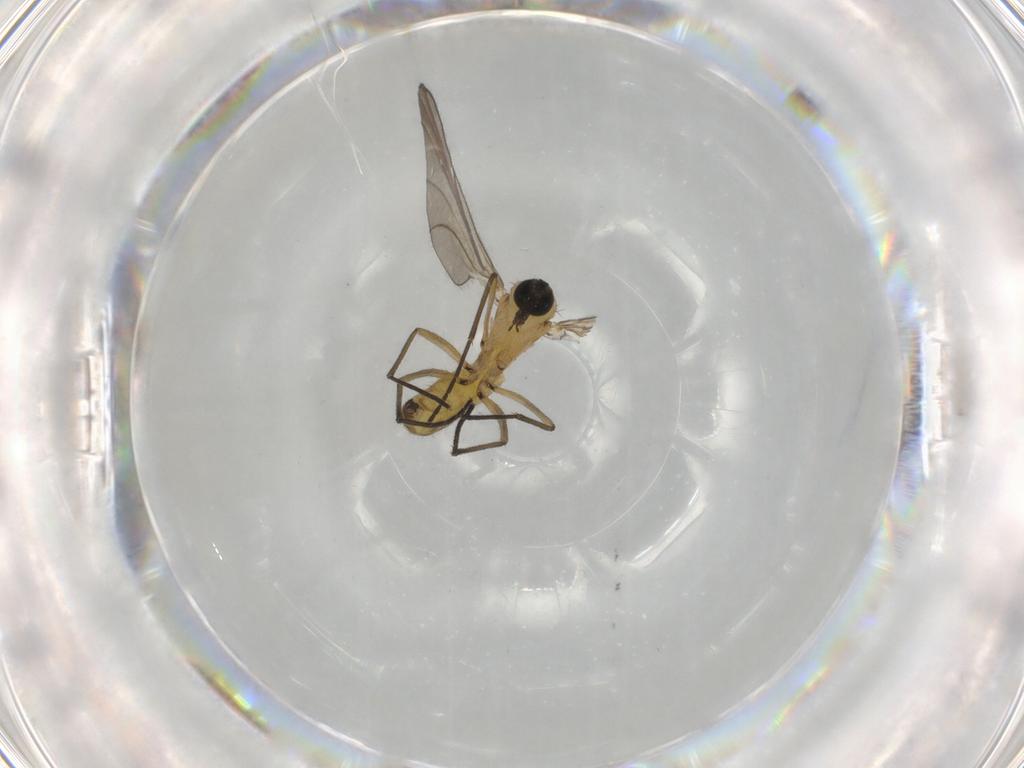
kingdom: Animalia
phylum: Arthropoda
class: Insecta
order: Diptera
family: Sciaridae
